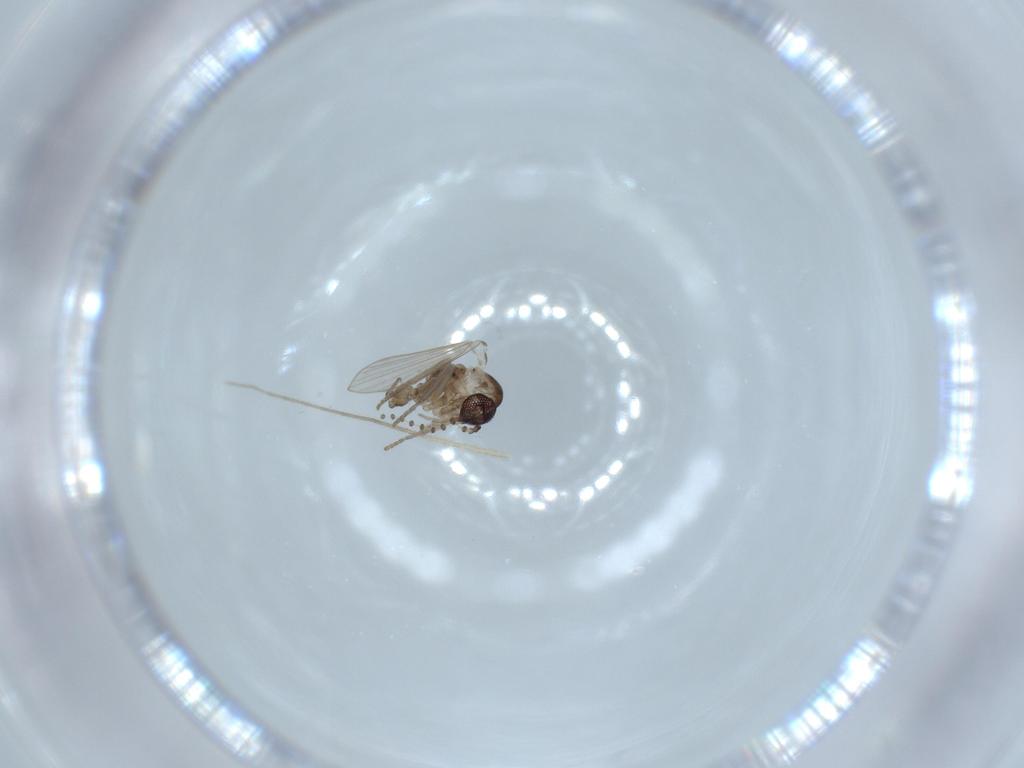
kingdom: Animalia
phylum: Arthropoda
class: Insecta
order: Diptera
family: Psychodidae
